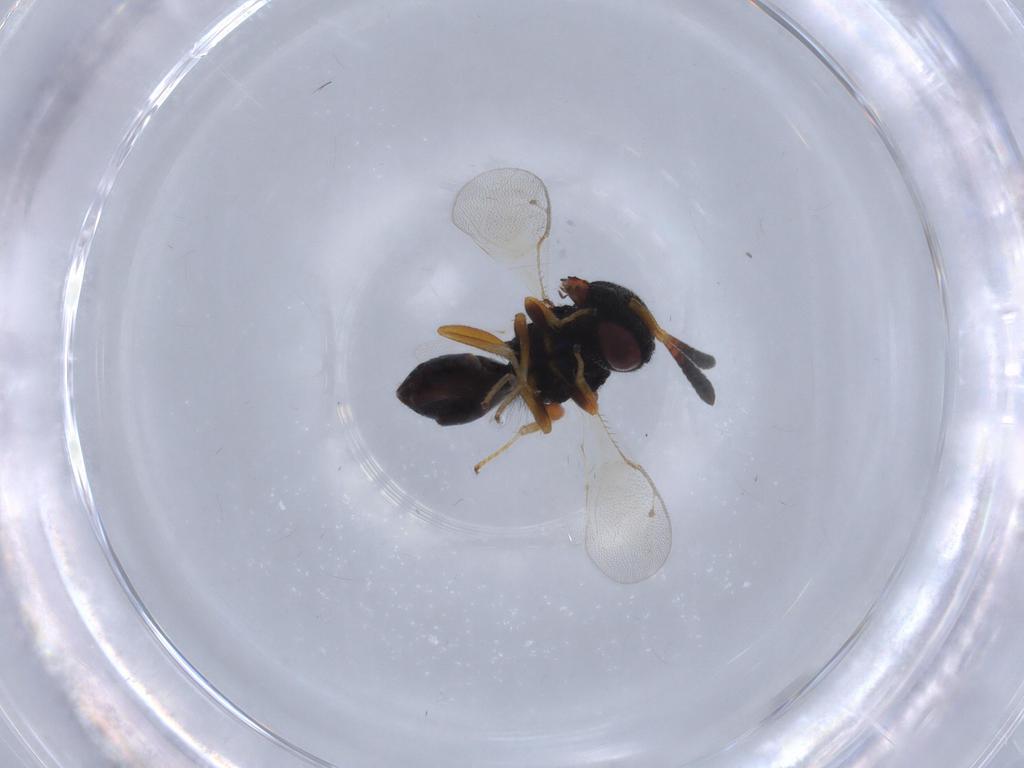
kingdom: Animalia
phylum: Arthropoda
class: Insecta
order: Hymenoptera
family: Agaonidae
